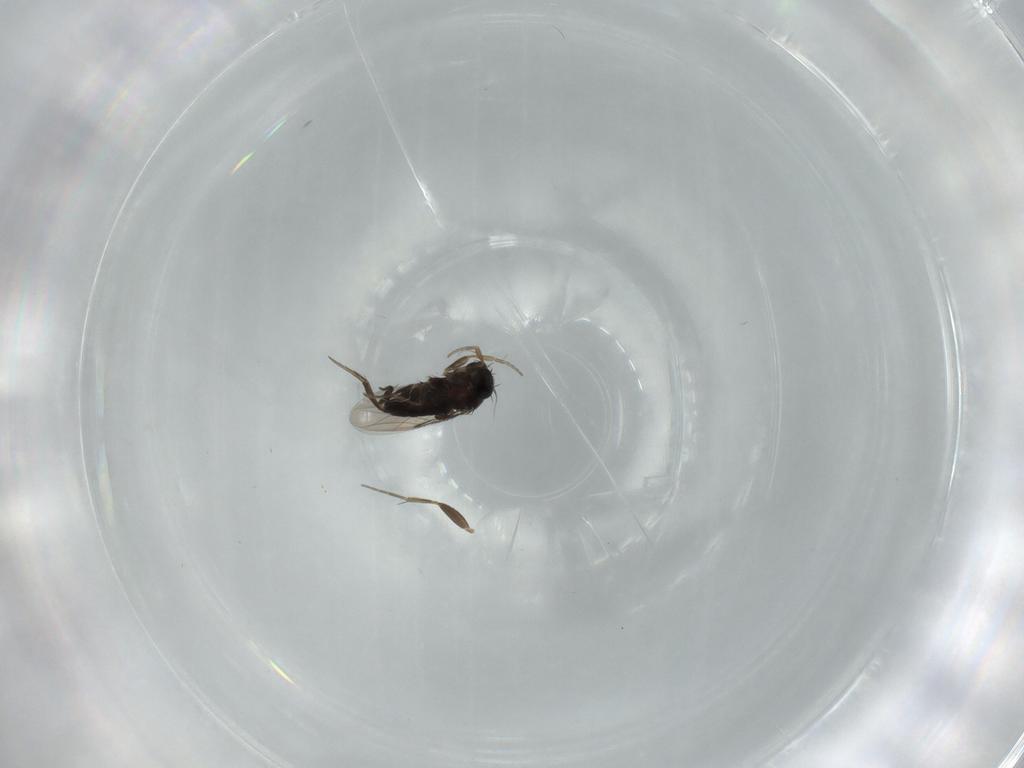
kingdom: Animalia
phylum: Arthropoda
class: Insecta
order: Diptera
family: Phoridae
